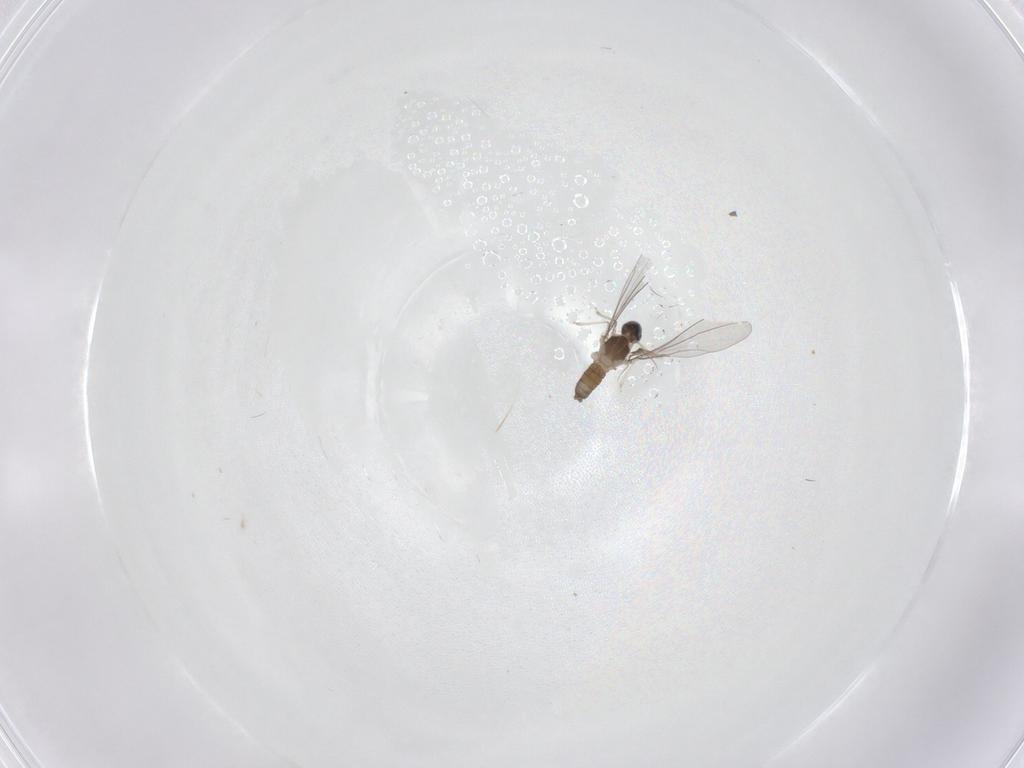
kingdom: Animalia
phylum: Arthropoda
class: Insecta
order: Diptera
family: Cecidomyiidae
